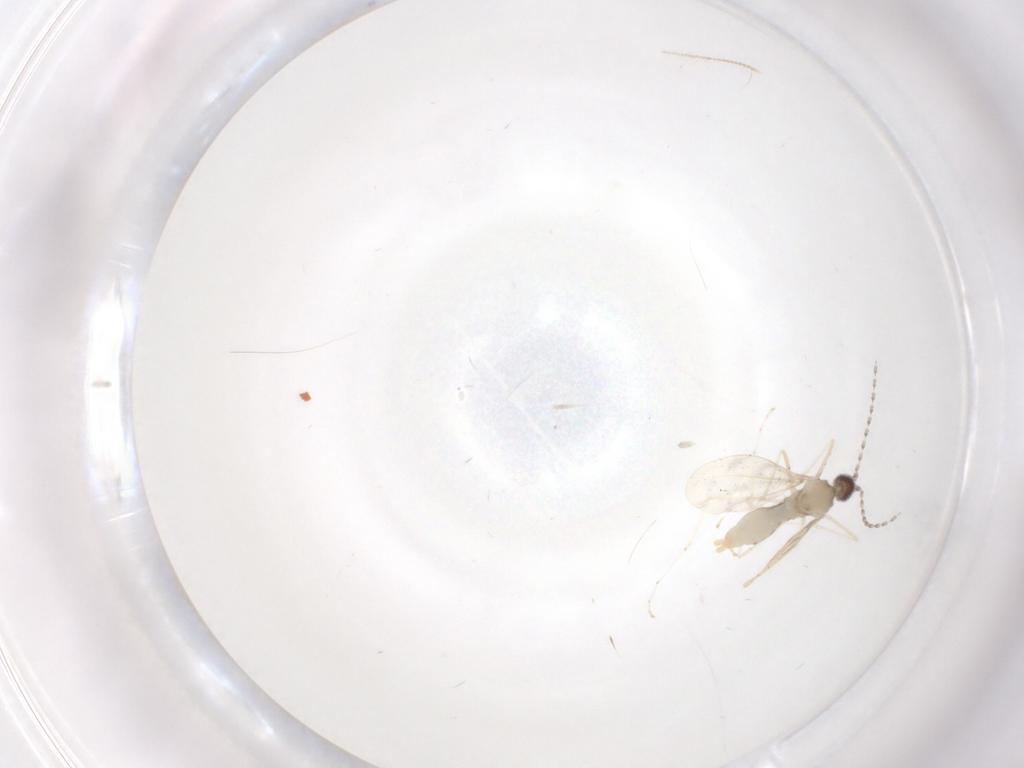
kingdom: Animalia
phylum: Arthropoda
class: Insecta
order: Diptera
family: Cecidomyiidae
